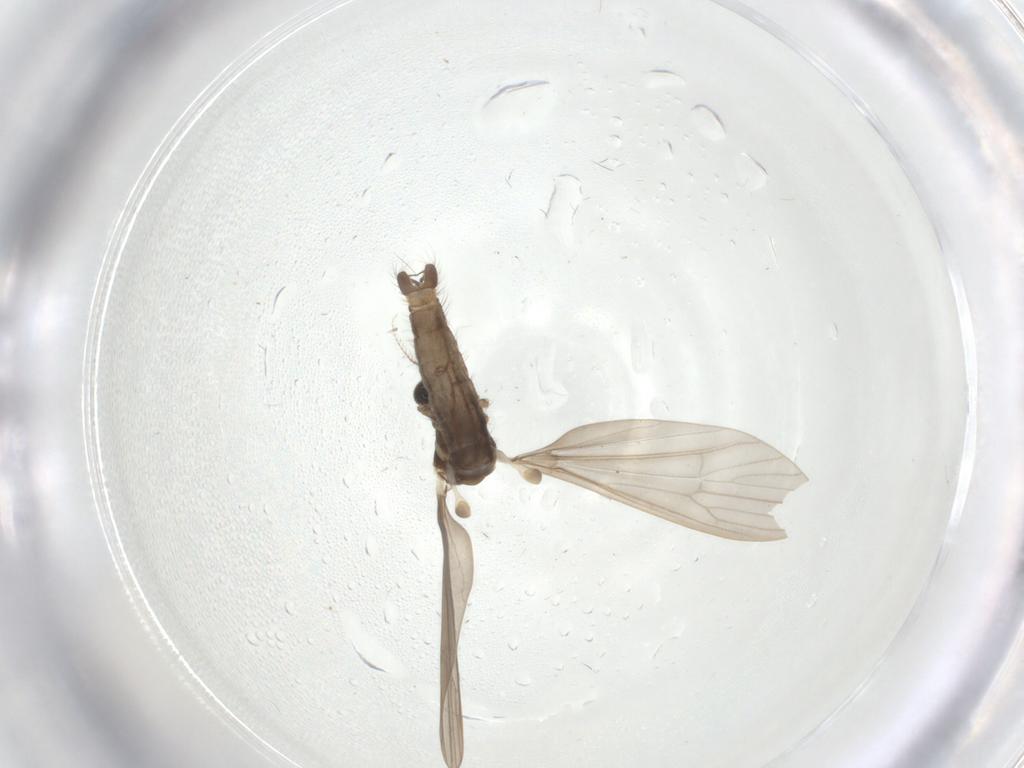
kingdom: Animalia
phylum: Arthropoda
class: Insecta
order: Diptera
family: Limoniidae
